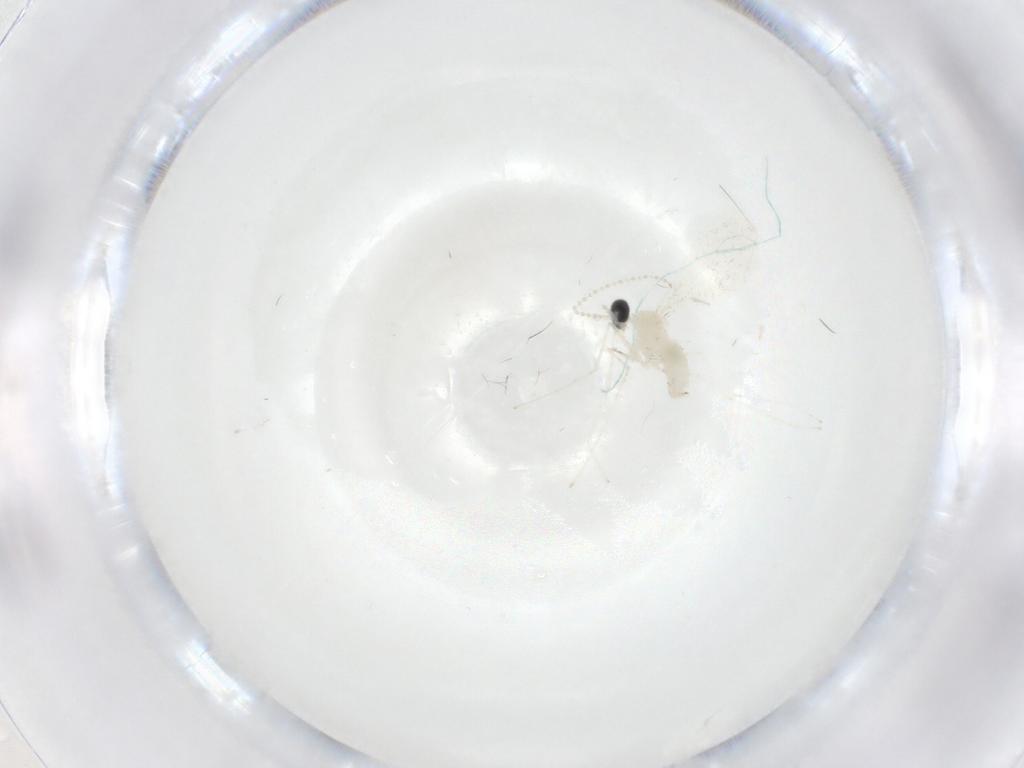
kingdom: Animalia
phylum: Arthropoda
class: Insecta
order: Diptera
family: Cecidomyiidae
